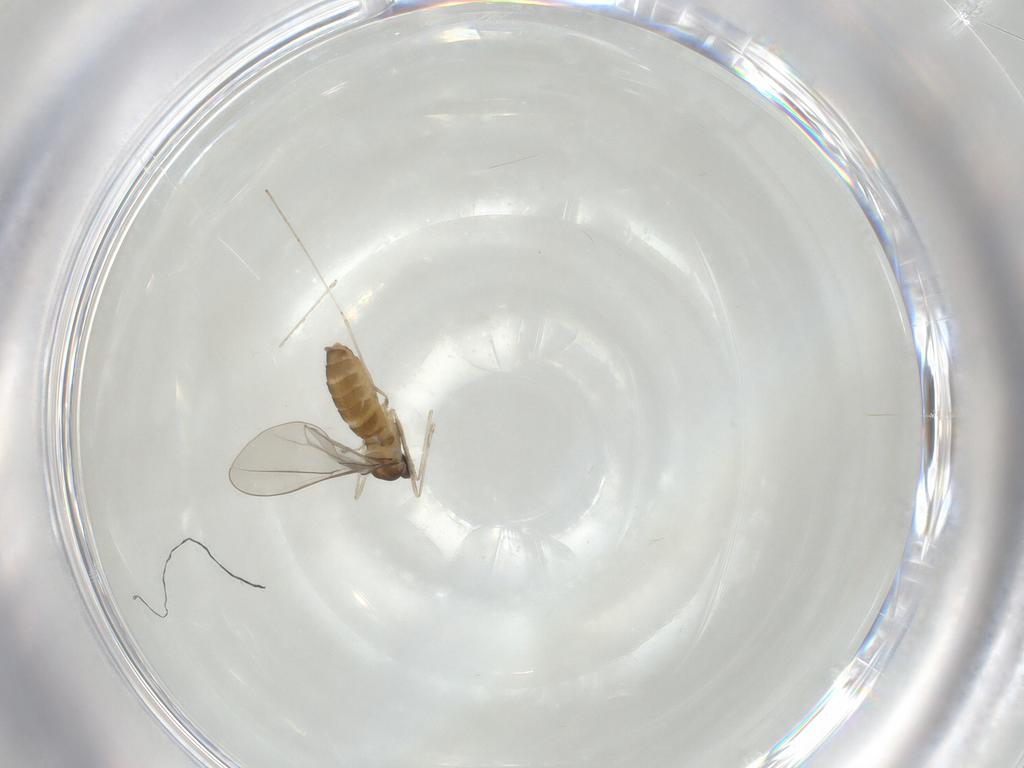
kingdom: Animalia
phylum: Arthropoda
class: Insecta
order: Diptera
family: Cecidomyiidae
